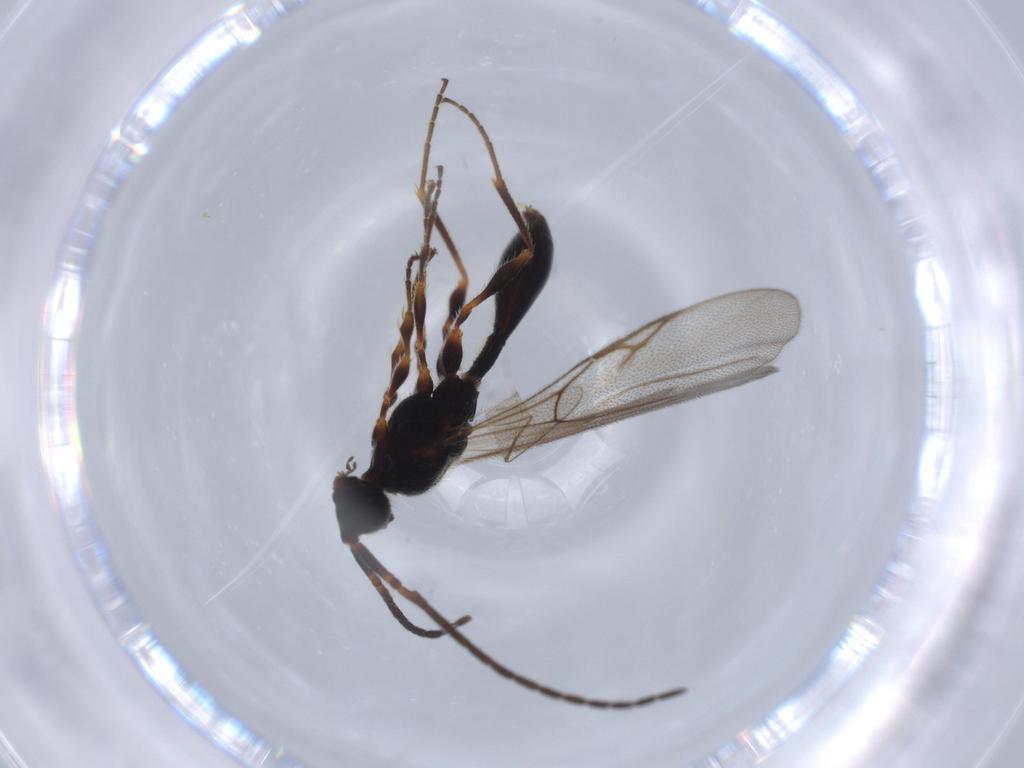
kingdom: Animalia
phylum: Arthropoda
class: Insecta
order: Hymenoptera
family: Diapriidae
